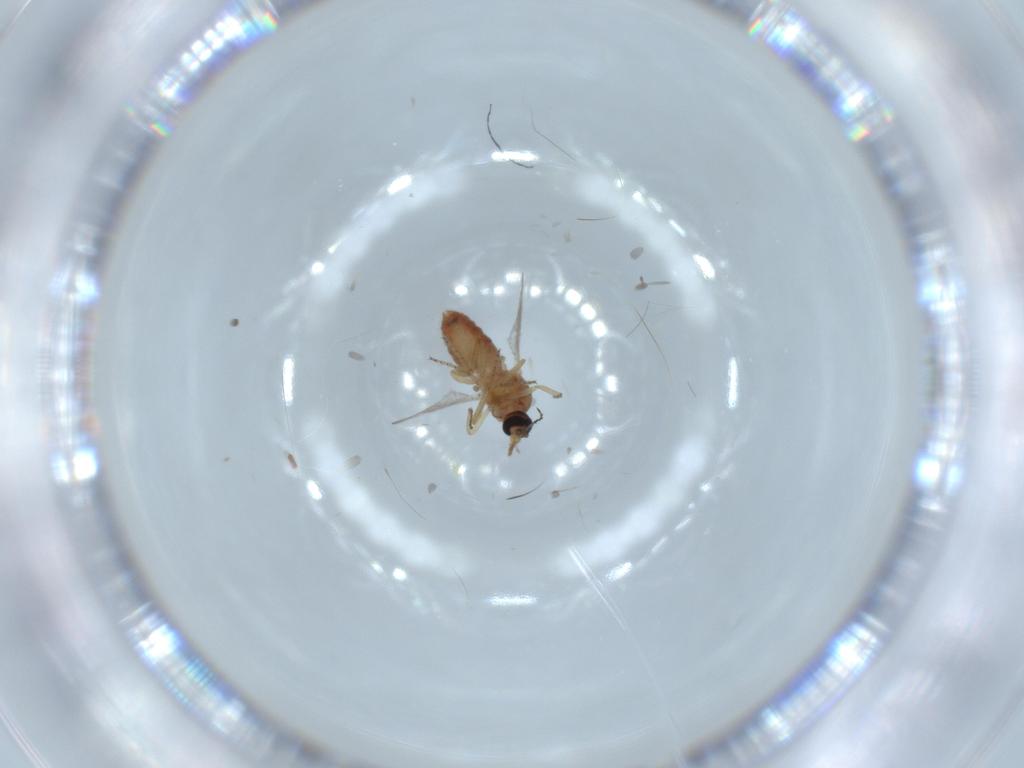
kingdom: Animalia
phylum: Arthropoda
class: Insecta
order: Diptera
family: Ceratopogonidae
